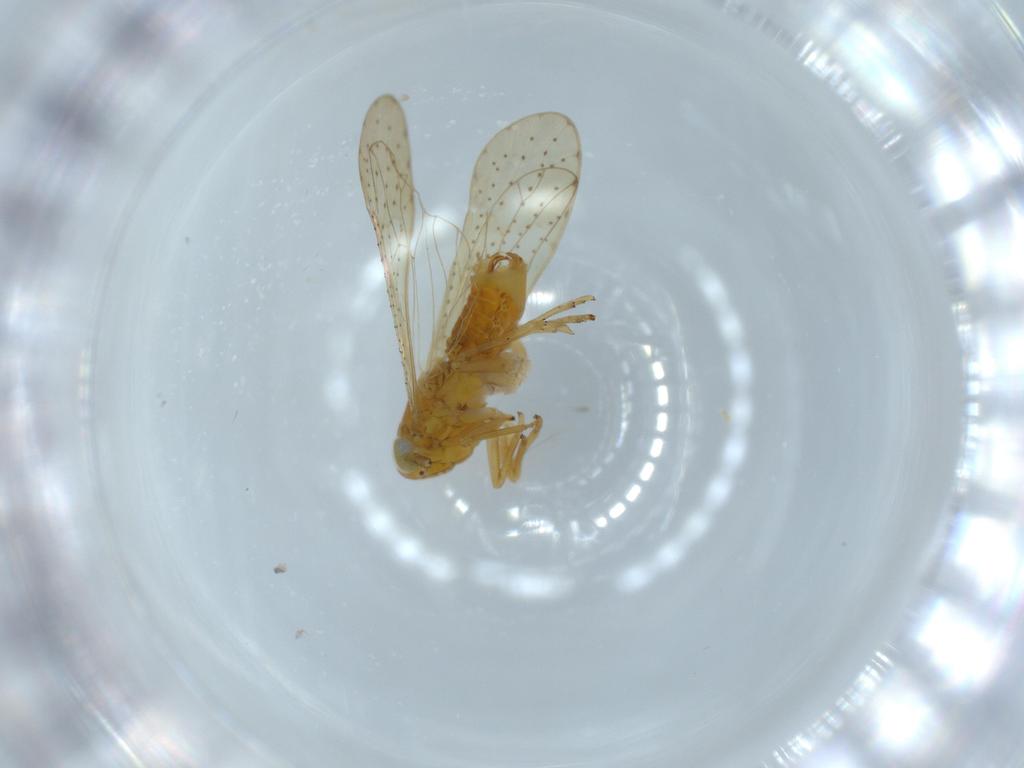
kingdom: Animalia
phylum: Arthropoda
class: Insecta
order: Hemiptera
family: Delphacidae
